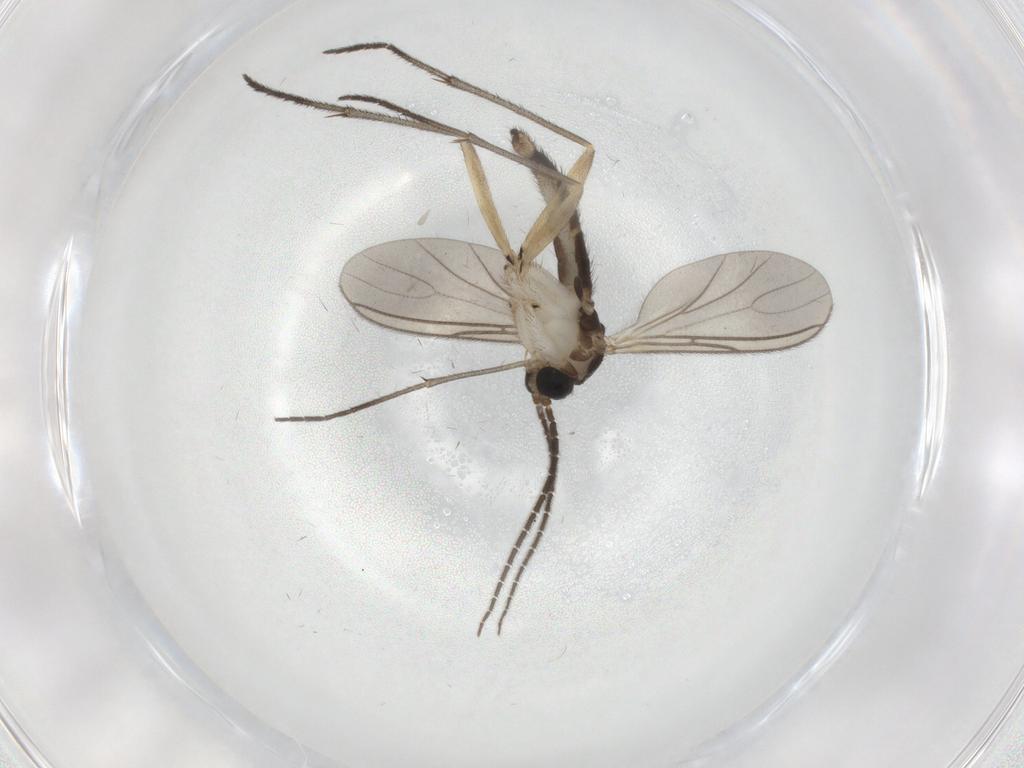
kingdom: Animalia
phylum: Arthropoda
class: Insecta
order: Diptera
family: Sciaridae
